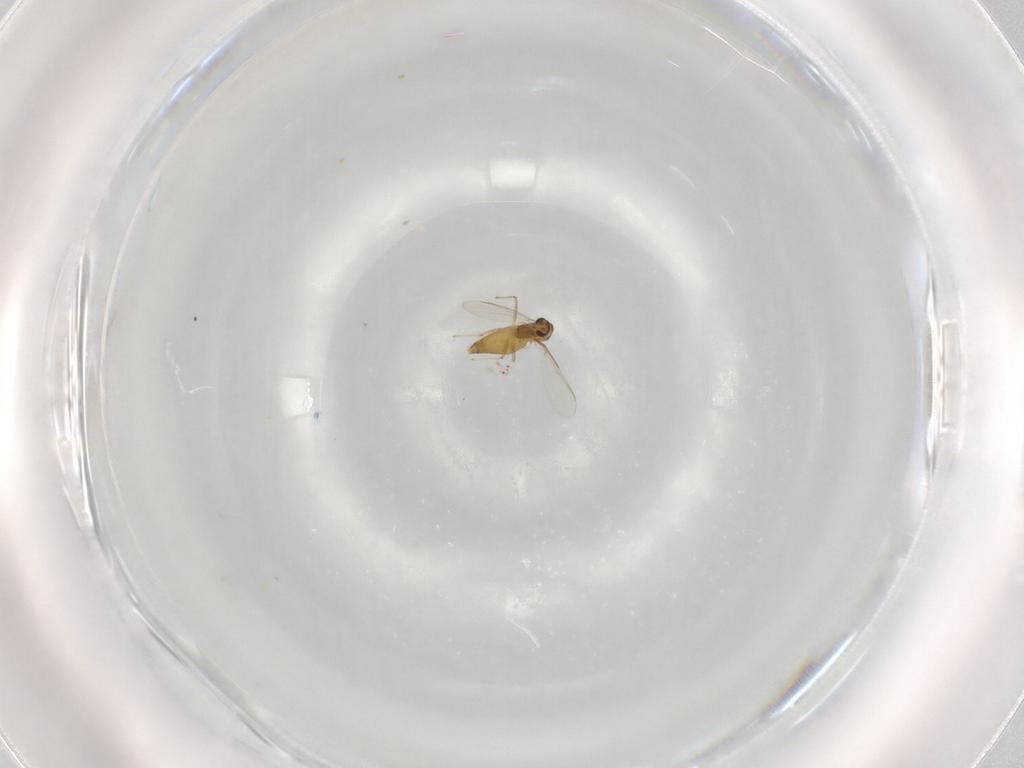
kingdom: Animalia
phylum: Arthropoda
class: Insecta
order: Diptera
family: Chironomidae
